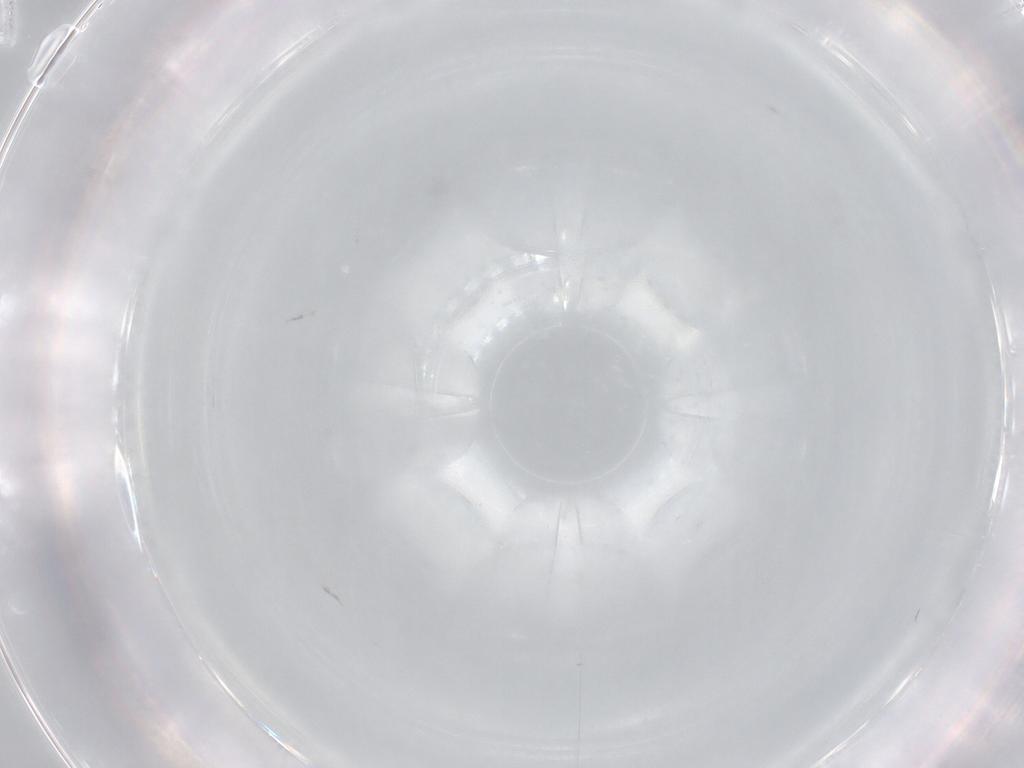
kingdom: Animalia
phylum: Arthropoda
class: Insecta
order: Diptera
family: Cecidomyiidae
